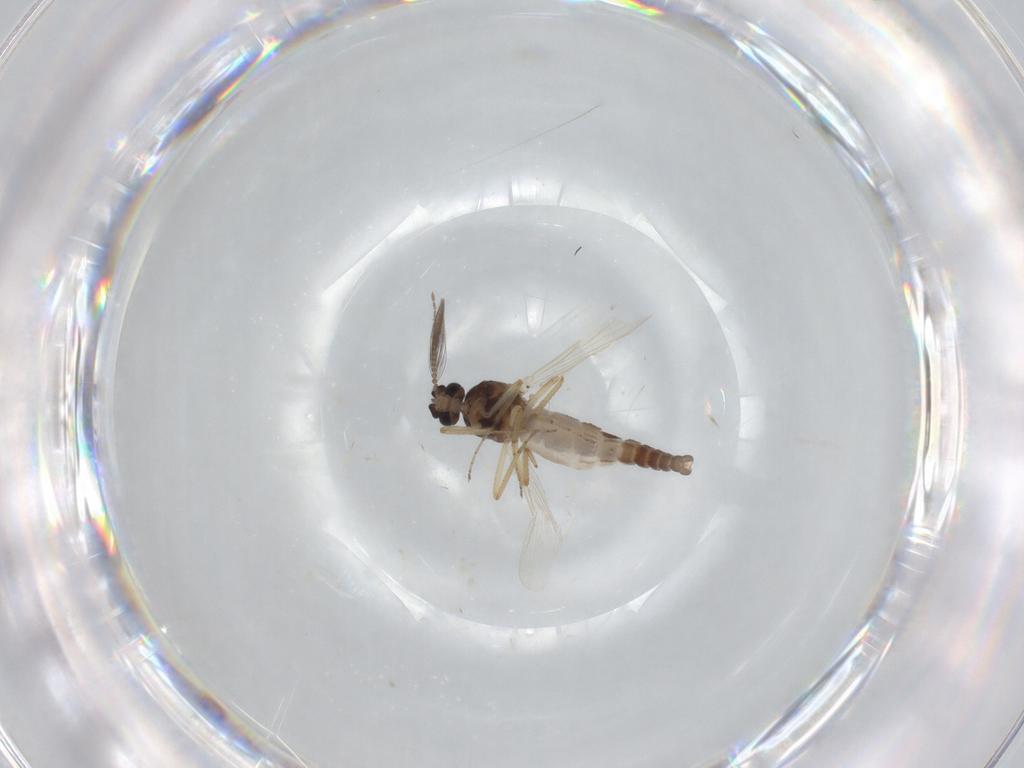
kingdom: Animalia
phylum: Arthropoda
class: Insecta
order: Diptera
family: Ceratopogonidae
